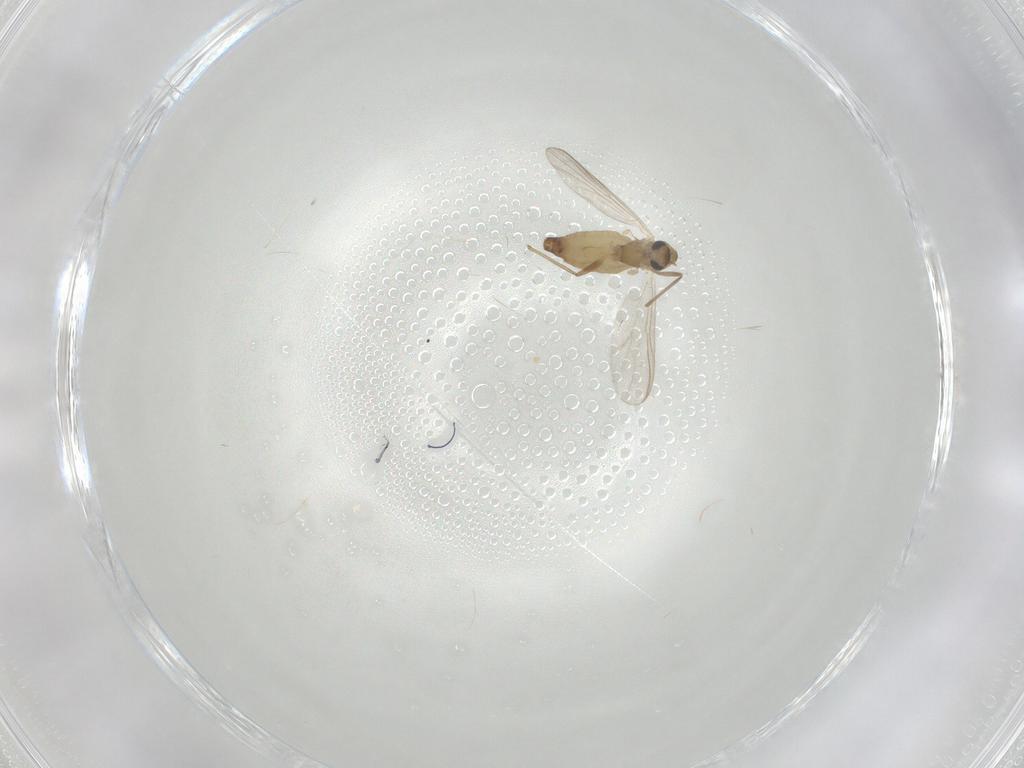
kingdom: Animalia
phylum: Arthropoda
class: Insecta
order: Diptera
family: Chironomidae
